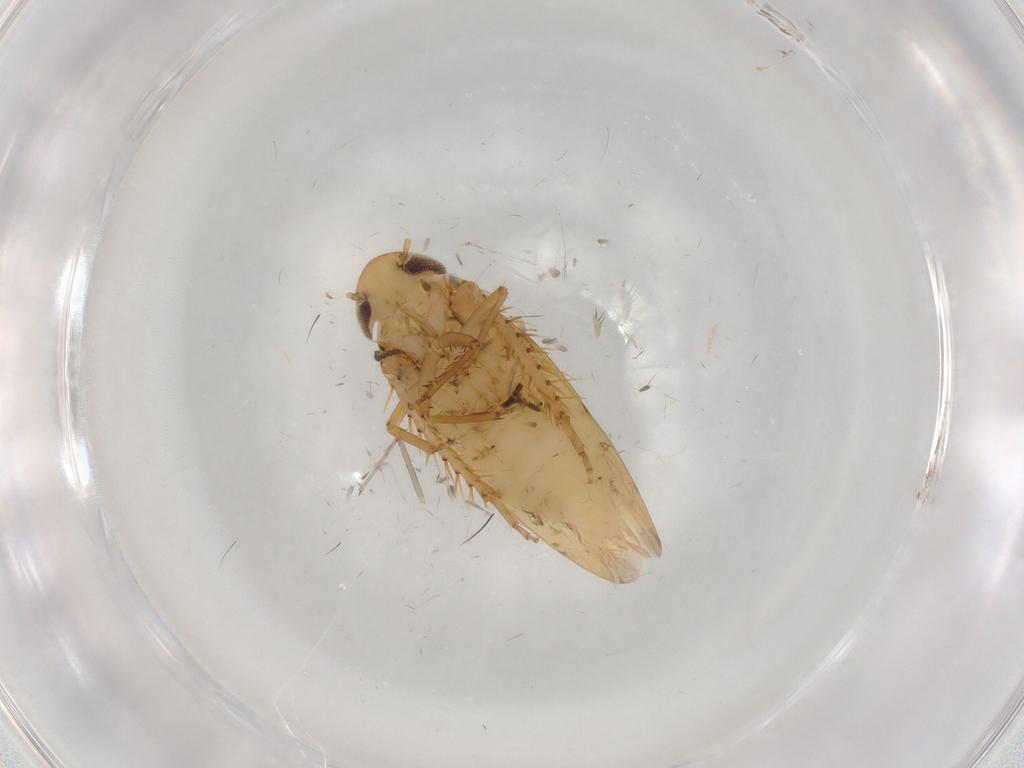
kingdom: Animalia
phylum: Arthropoda
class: Insecta
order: Hemiptera
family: Cicadellidae
